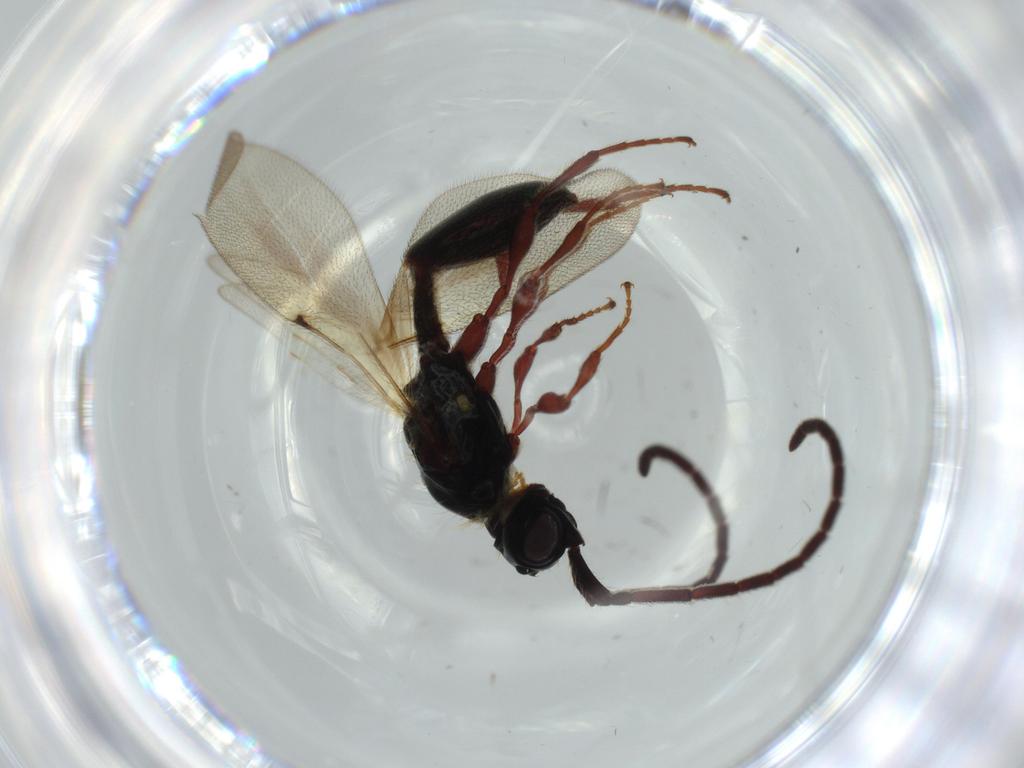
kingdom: Animalia
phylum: Arthropoda
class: Insecta
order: Hymenoptera
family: Diapriidae
